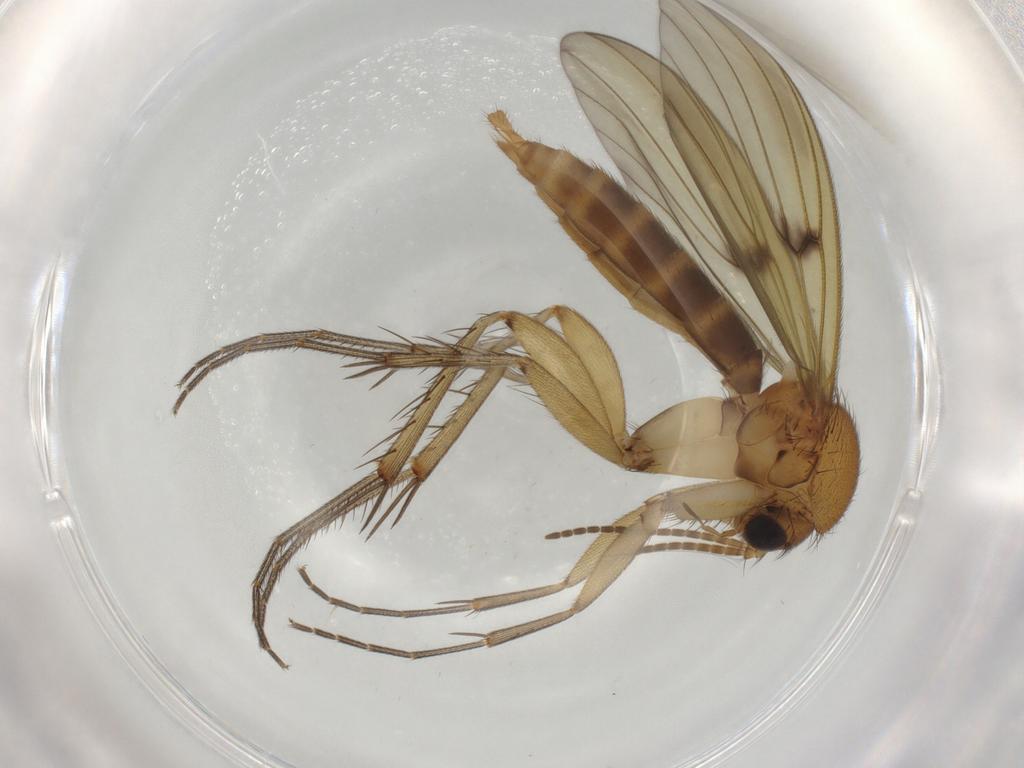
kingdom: Animalia
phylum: Arthropoda
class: Insecta
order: Diptera
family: Mycetophilidae
